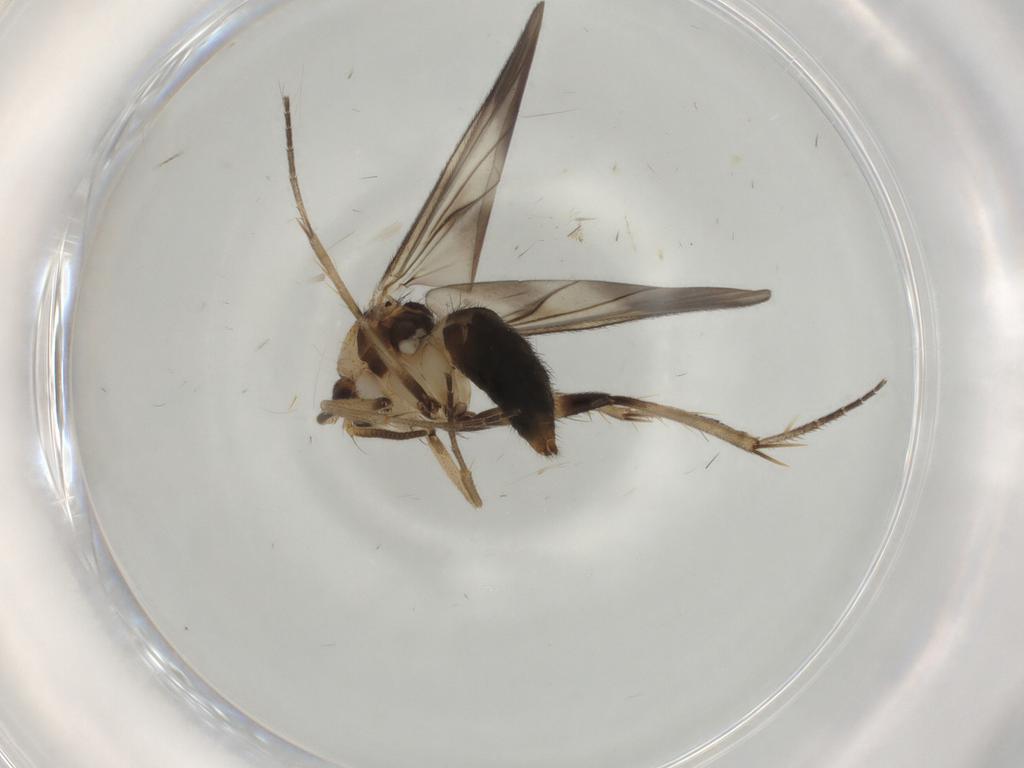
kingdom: Animalia
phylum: Arthropoda
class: Insecta
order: Diptera
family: Mycetophilidae
